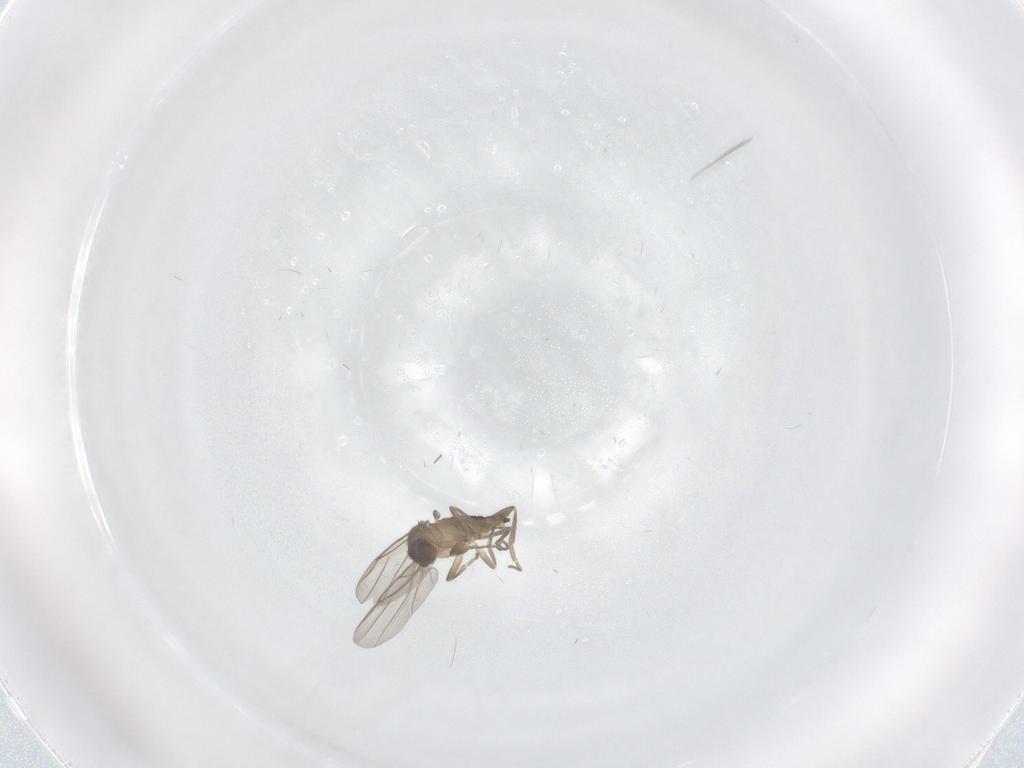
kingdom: Animalia
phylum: Arthropoda
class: Insecta
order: Diptera
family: Phoridae
